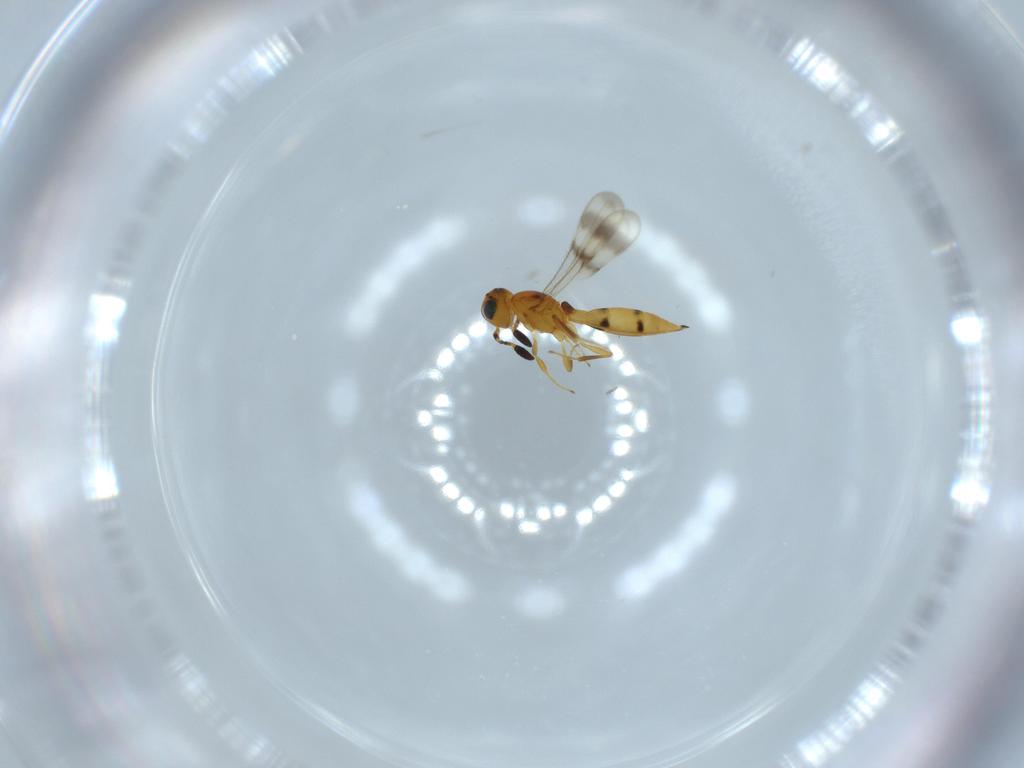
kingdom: Animalia
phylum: Arthropoda
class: Insecta
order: Hymenoptera
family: Scelionidae
